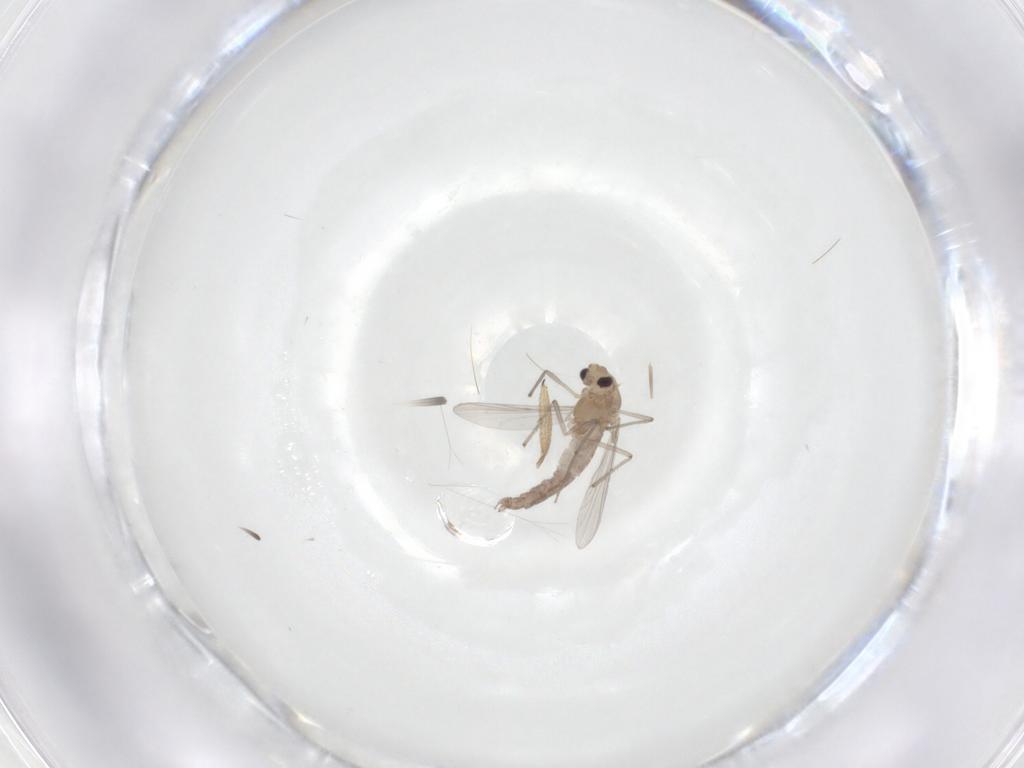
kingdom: Animalia
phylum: Arthropoda
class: Insecta
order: Diptera
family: Chironomidae
